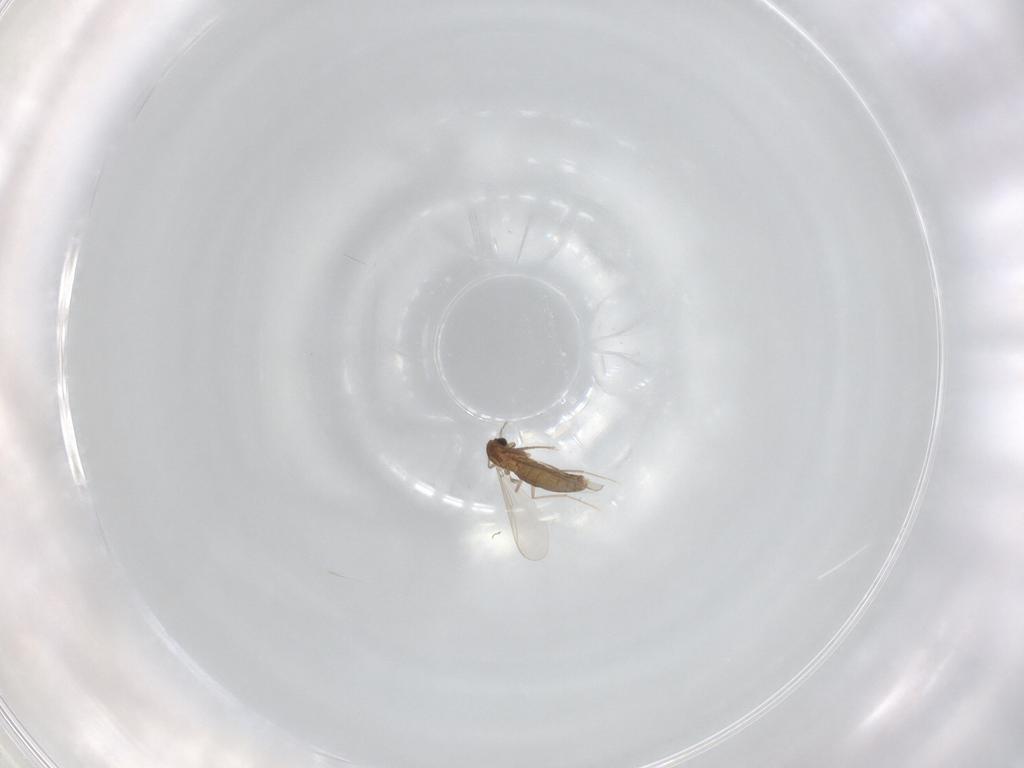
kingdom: Animalia
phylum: Arthropoda
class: Insecta
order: Diptera
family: Chironomidae
